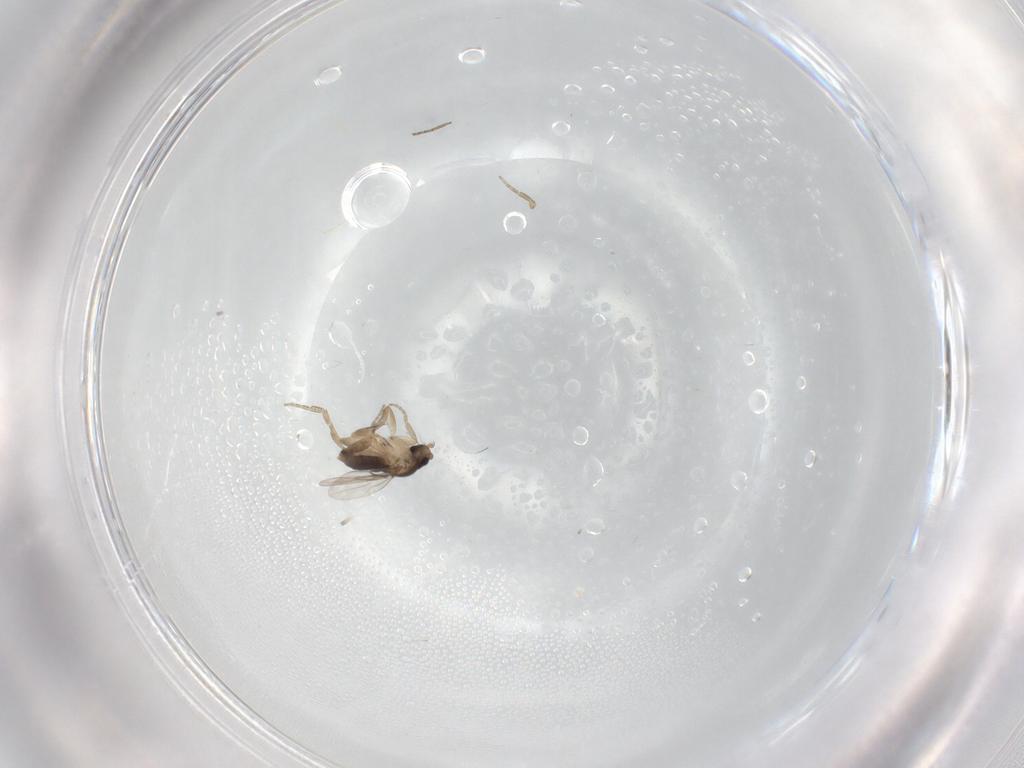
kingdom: Animalia
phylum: Arthropoda
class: Insecta
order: Diptera
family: Phoridae
